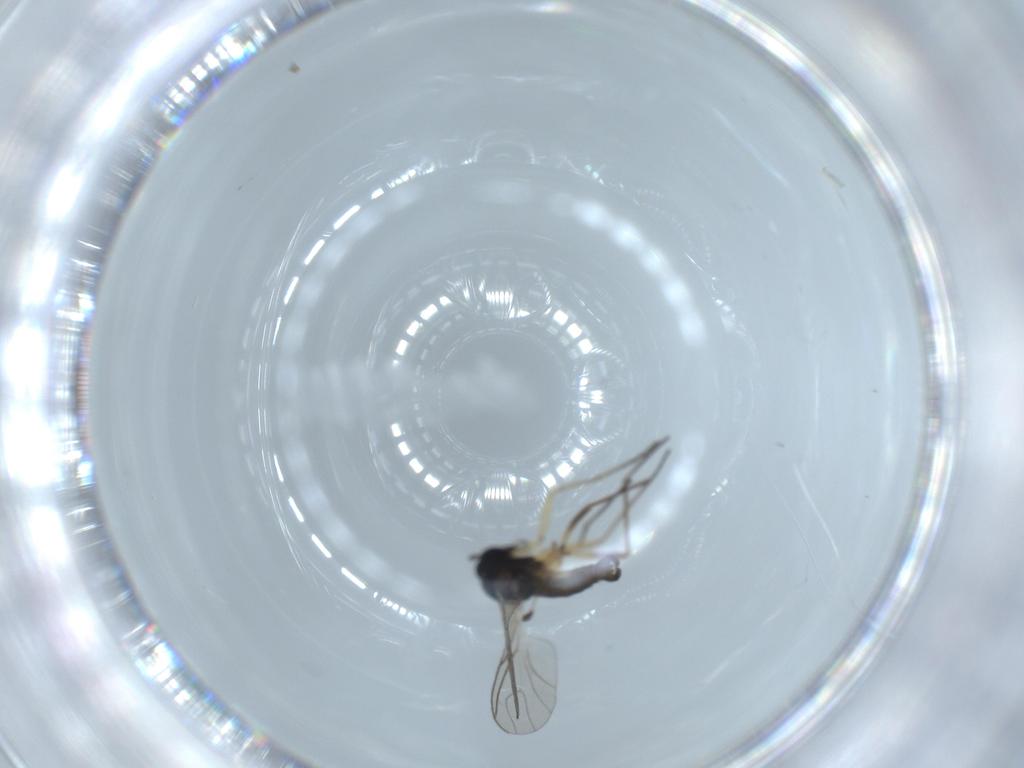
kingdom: Animalia
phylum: Arthropoda
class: Insecta
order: Diptera
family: Sciaridae
